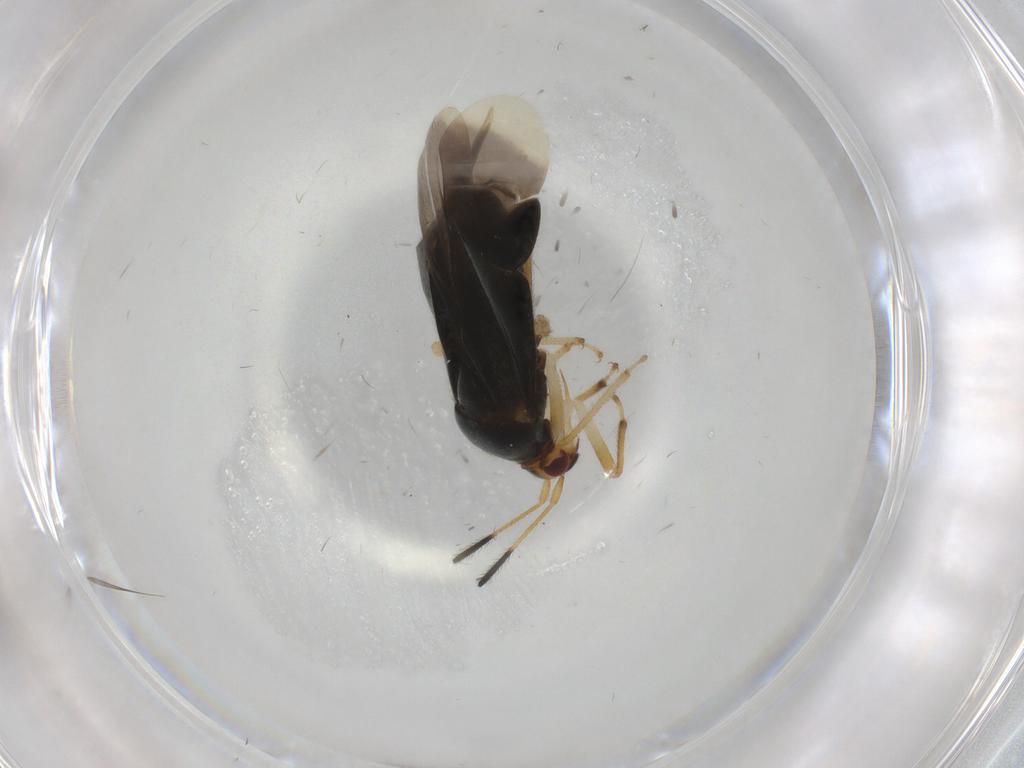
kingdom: Animalia
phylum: Arthropoda
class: Insecta
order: Hemiptera
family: Miridae
